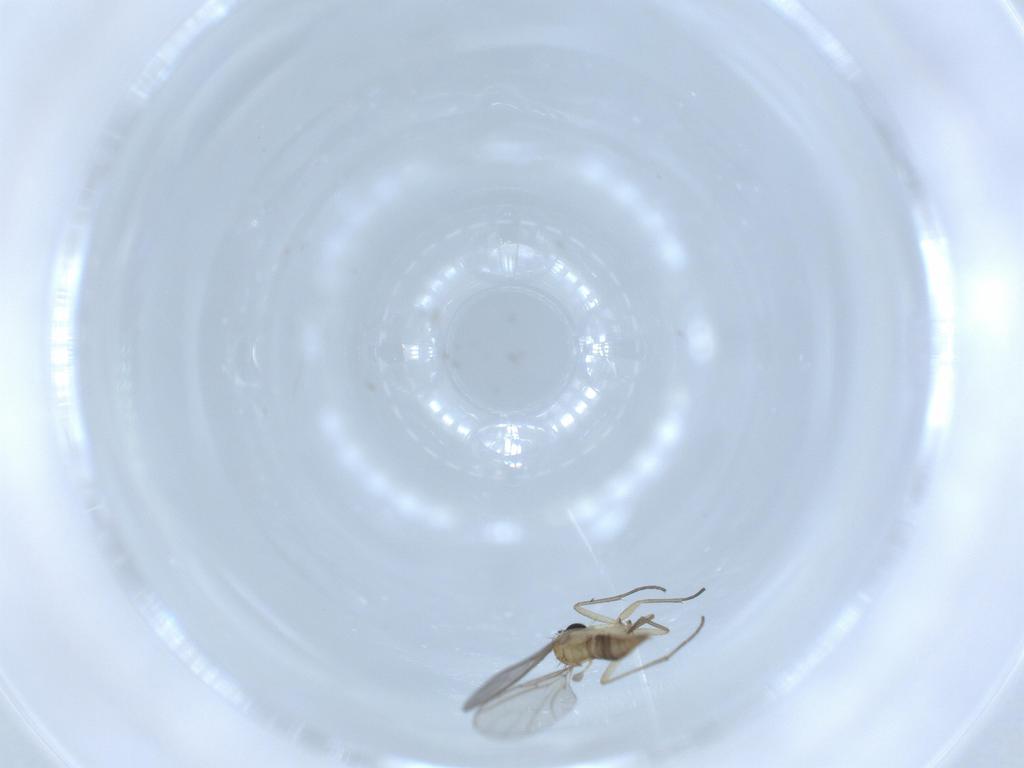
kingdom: Animalia
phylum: Arthropoda
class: Insecta
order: Diptera
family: Sciaridae
